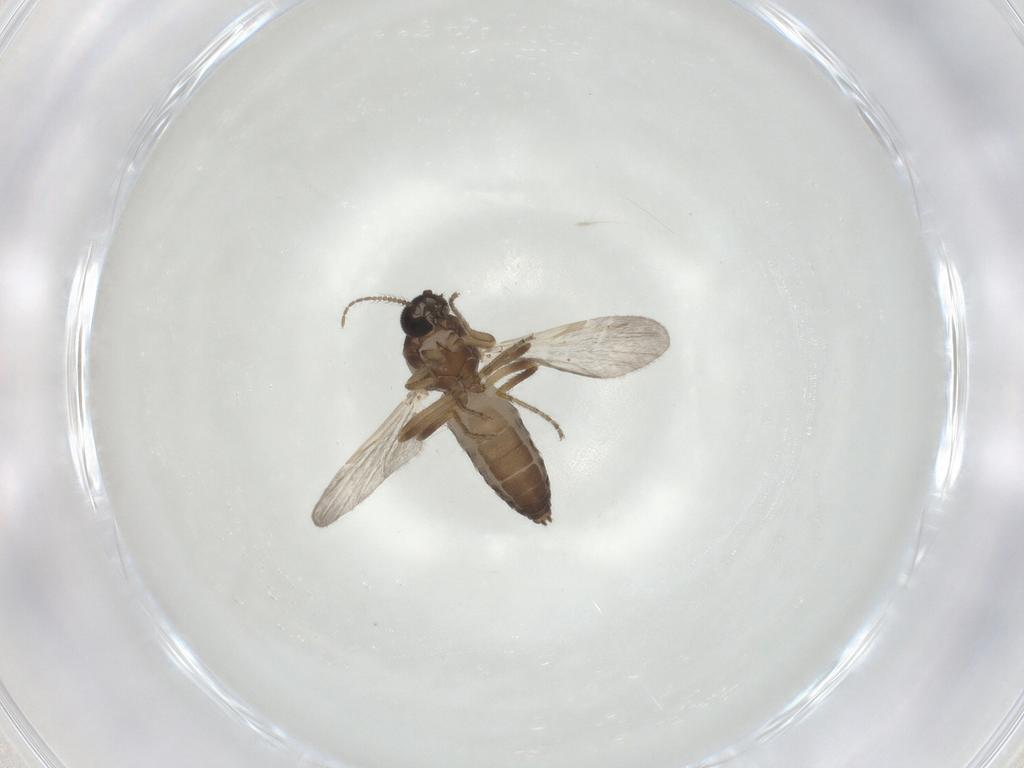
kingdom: Animalia
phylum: Arthropoda
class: Insecta
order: Diptera
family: Ceratopogonidae
